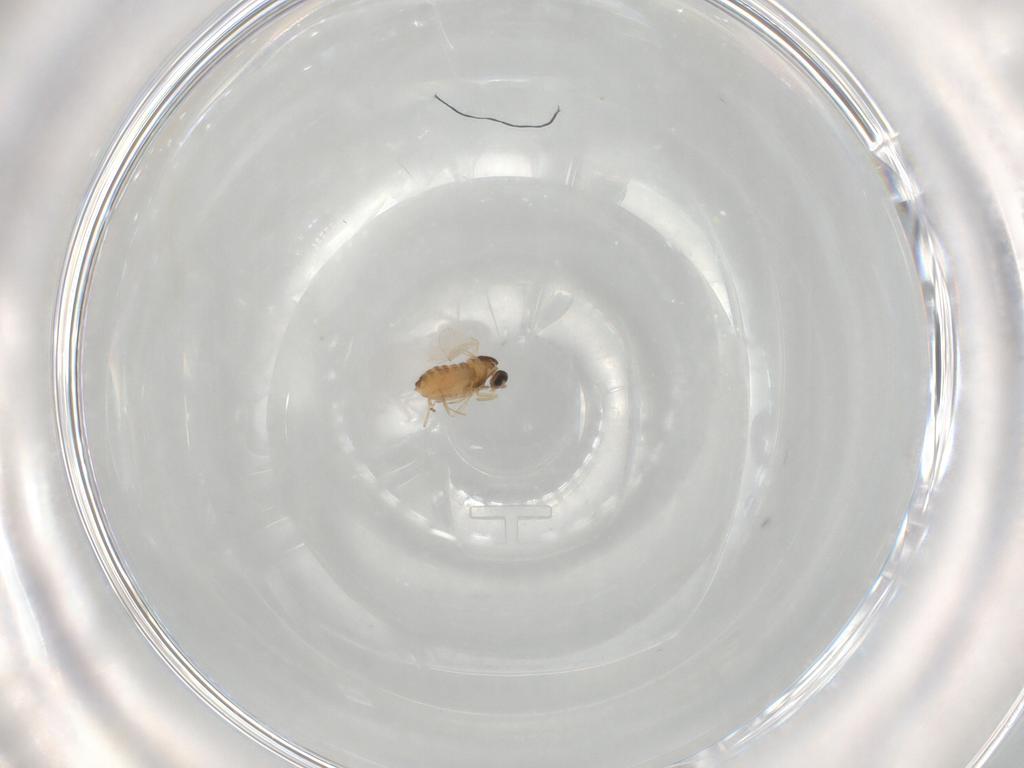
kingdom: Animalia
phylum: Arthropoda
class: Insecta
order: Diptera
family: Cecidomyiidae
